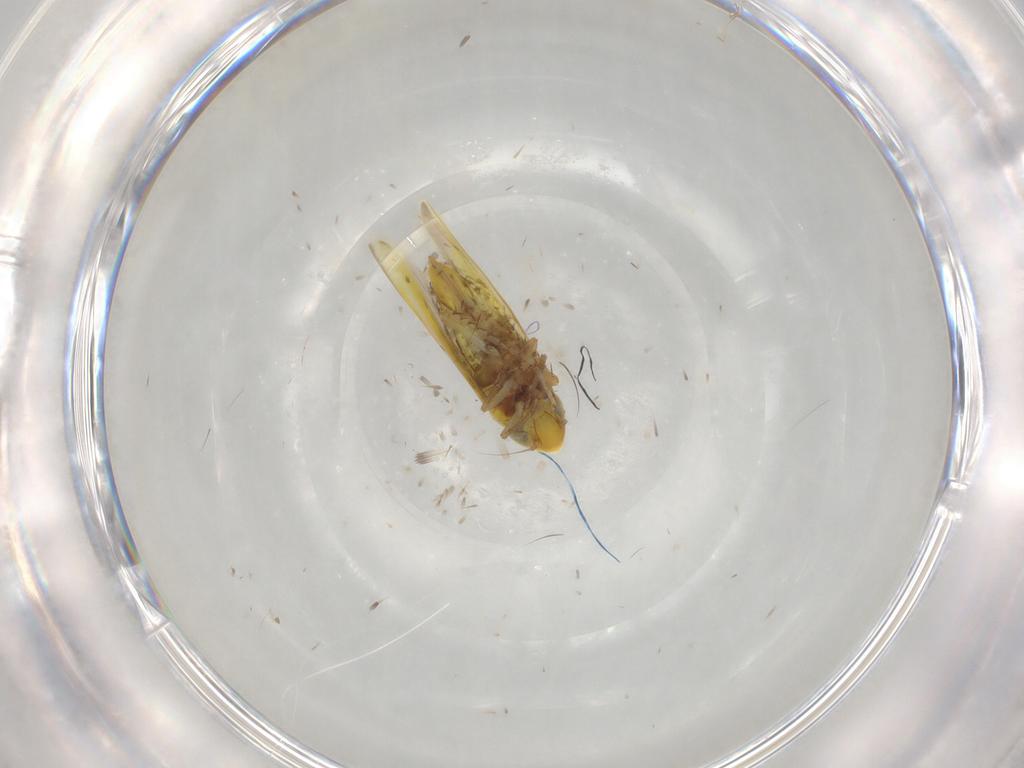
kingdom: Animalia
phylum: Arthropoda
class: Insecta
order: Hemiptera
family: Cicadellidae
